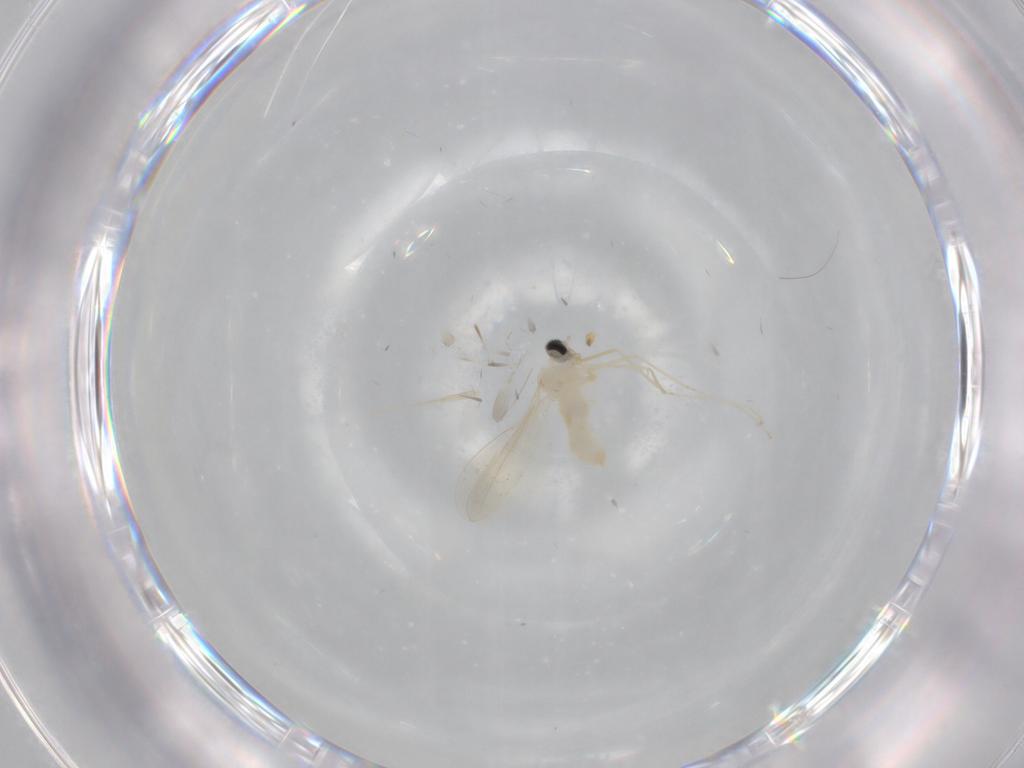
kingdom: Animalia
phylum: Arthropoda
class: Insecta
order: Diptera
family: Cecidomyiidae
